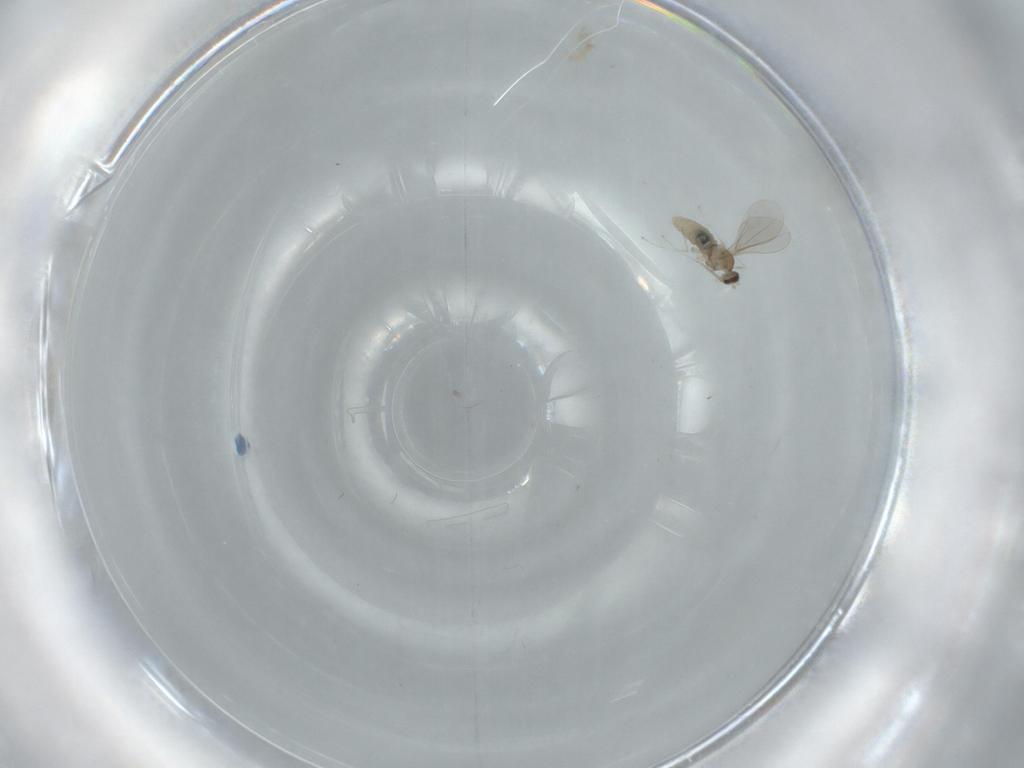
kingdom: Animalia
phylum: Arthropoda
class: Insecta
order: Diptera
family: Cecidomyiidae
